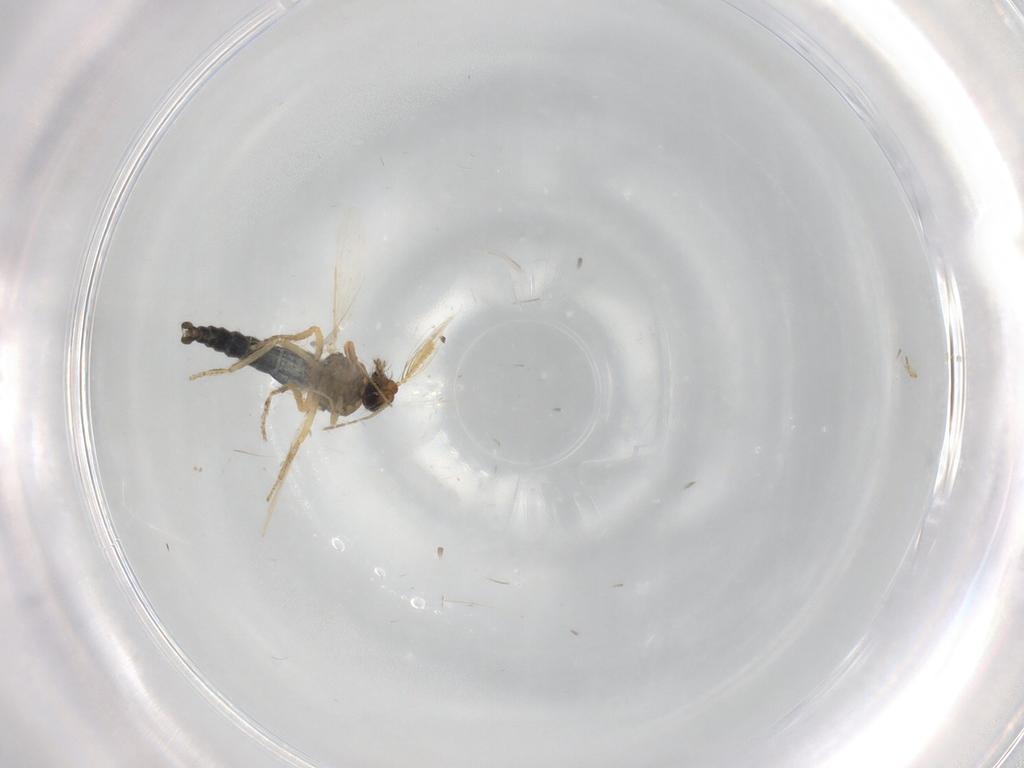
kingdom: Animalia
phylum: Arthropoda
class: Insecta
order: Diptera
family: Ceratopogonidae
